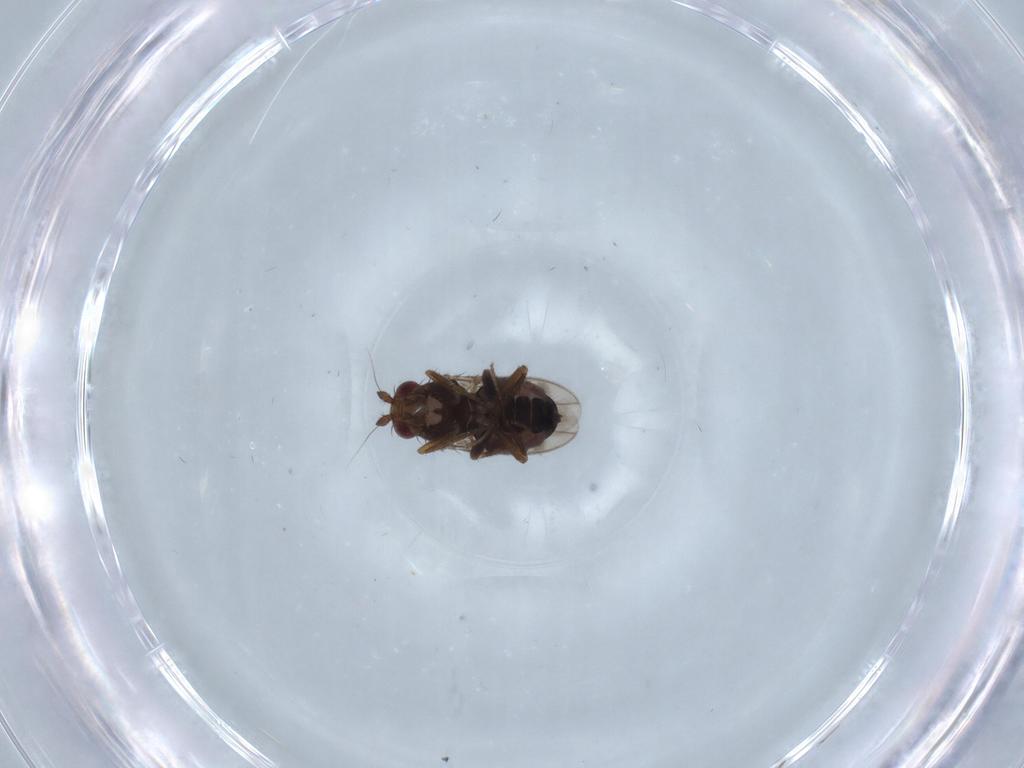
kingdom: Animalia
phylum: Arthropoda
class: Insecta
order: Diptera
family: Sphaeroceridae
